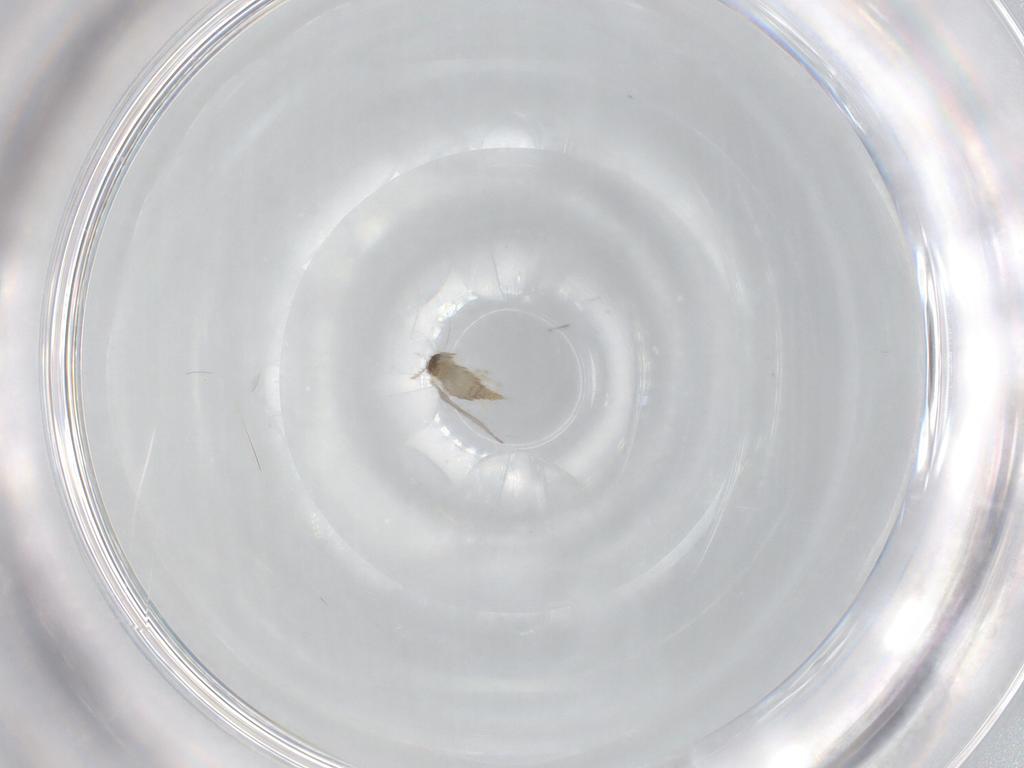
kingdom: Animalia
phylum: Arthropoda
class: Insecta
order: Diptera
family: Cecidomyiidae
